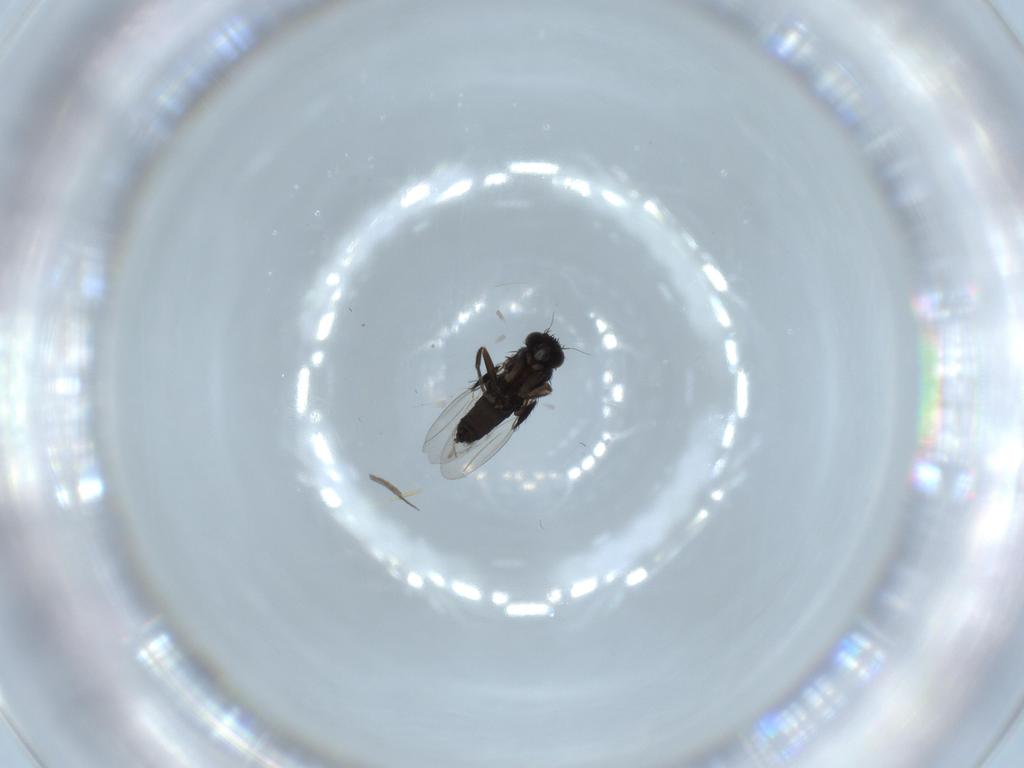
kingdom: Animalia
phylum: Arthropoda
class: Insecta
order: Diptera
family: Phoridae
